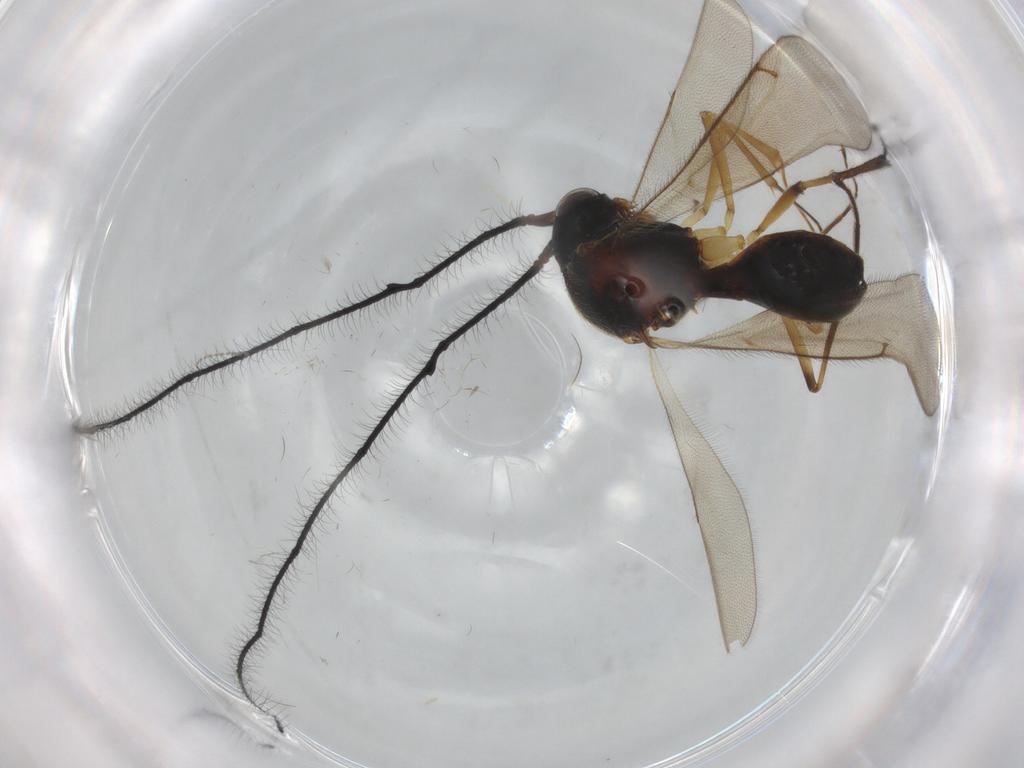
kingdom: Animalia
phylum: Arthropoda
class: Insecta
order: Hymenoptera
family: Scelionidae
